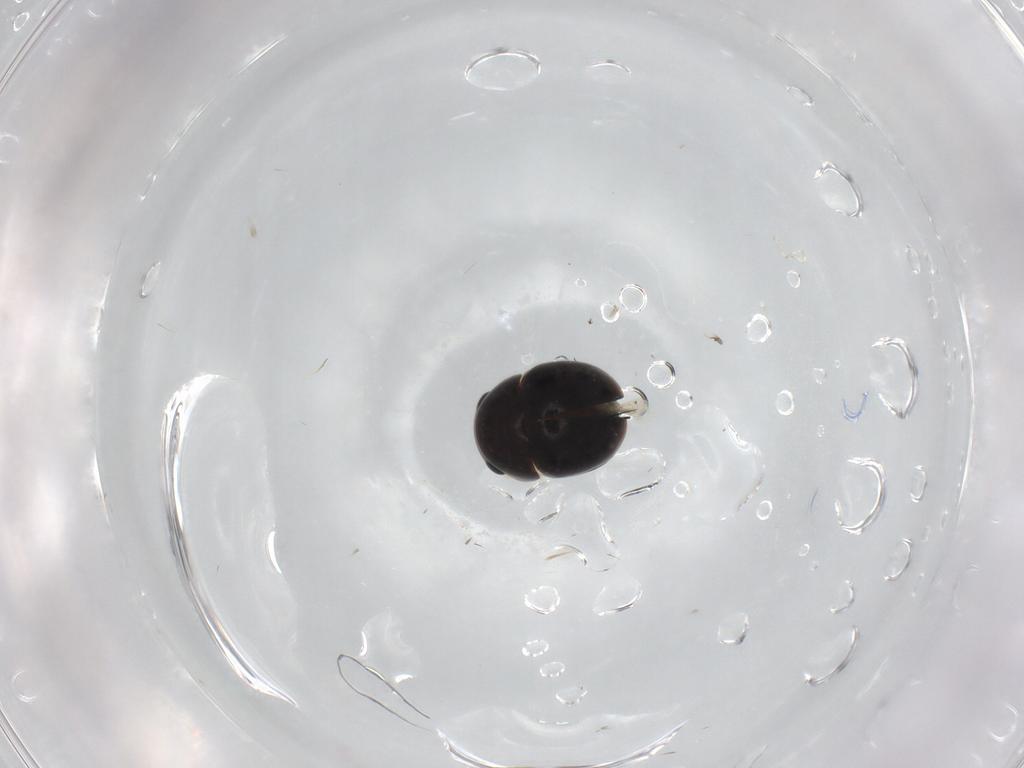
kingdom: Animalia
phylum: Arthropoda
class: Insecta
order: Coleoptera
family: Cybocephalidae
